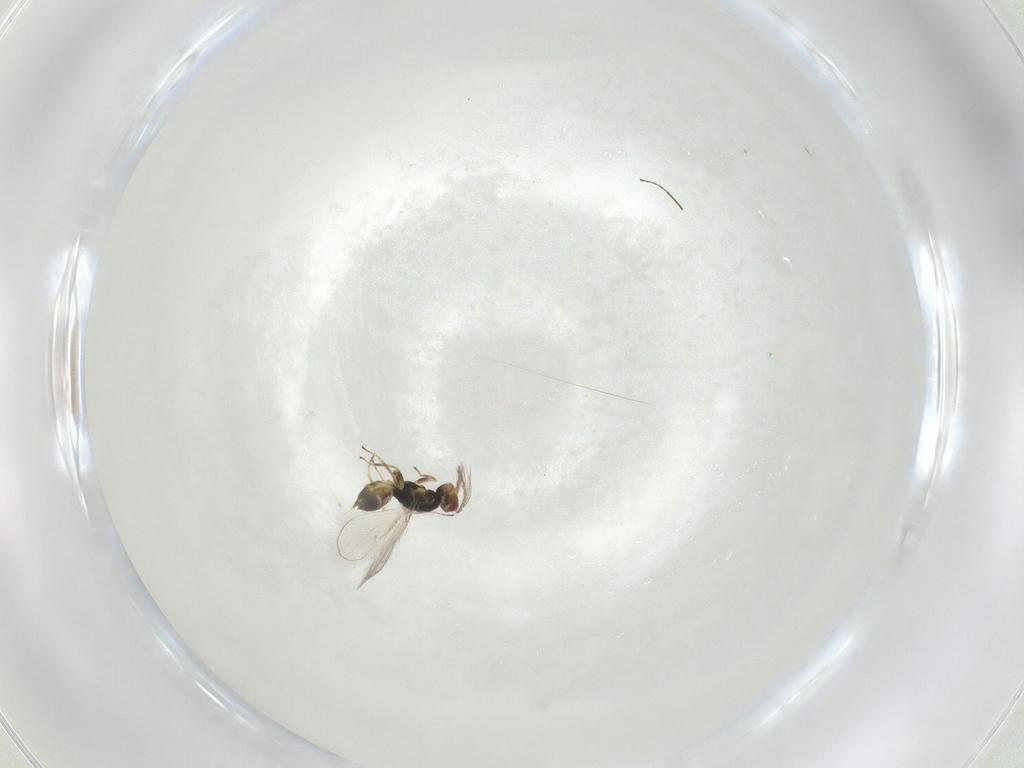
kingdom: Animalia
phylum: Arthropoda
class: Insecta
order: Hymenoptera
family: Platygastridae
